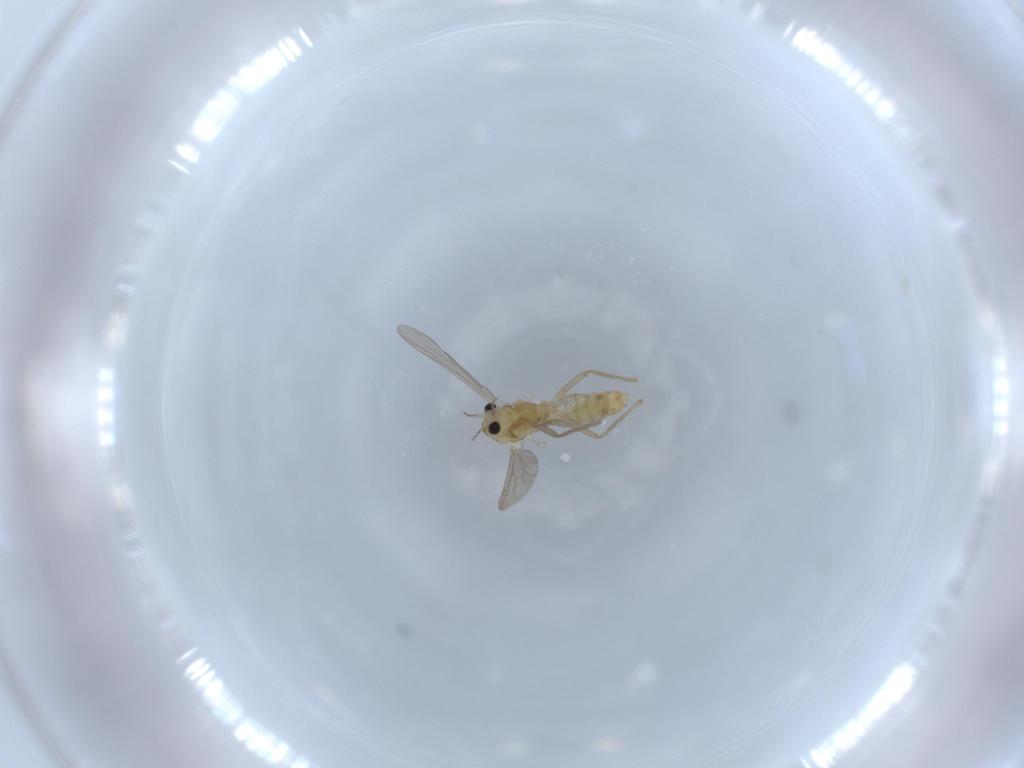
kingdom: Animalia
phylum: Arthropoda
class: Insecta
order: Diptera
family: Chironomidae
